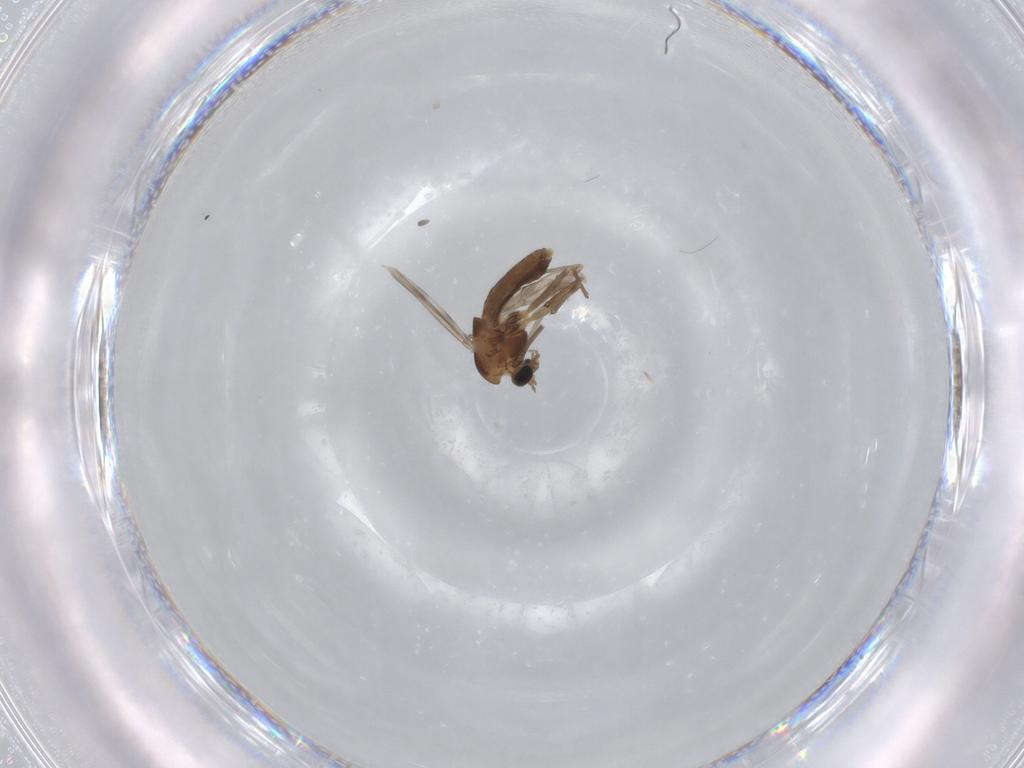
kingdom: Animalia
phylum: Arthropoda
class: Insecta
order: Diptera
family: Chironomidae
